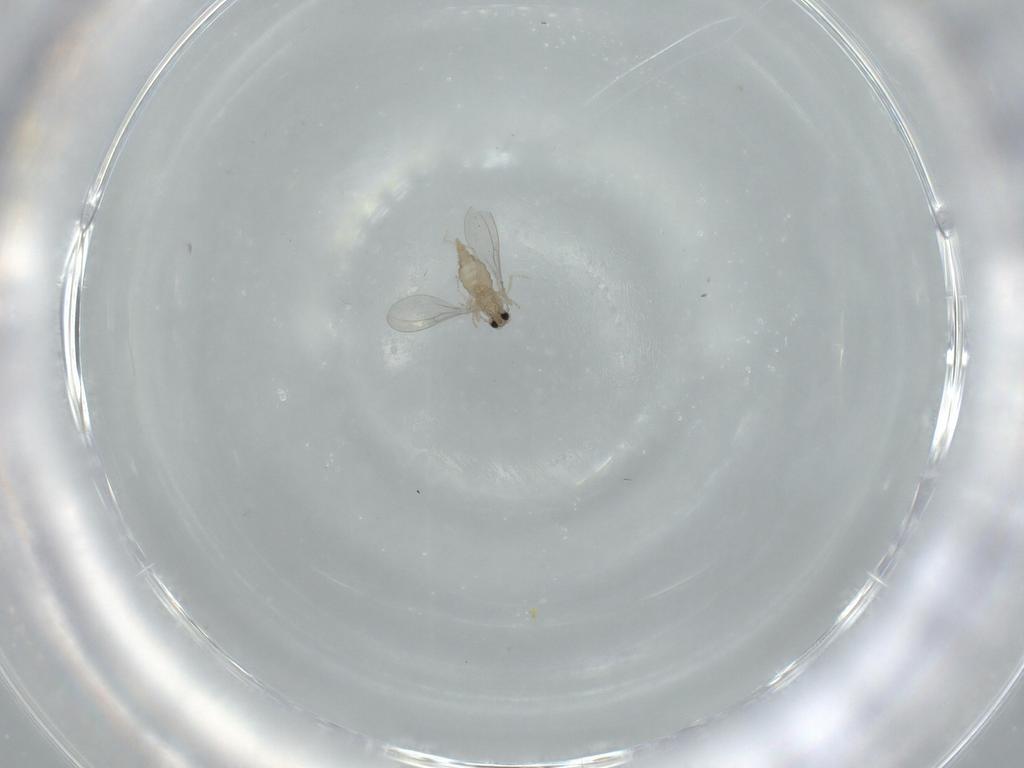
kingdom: Animalia
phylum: Arthropoda
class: Insecta
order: Diptera
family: Cecidomyiidae
